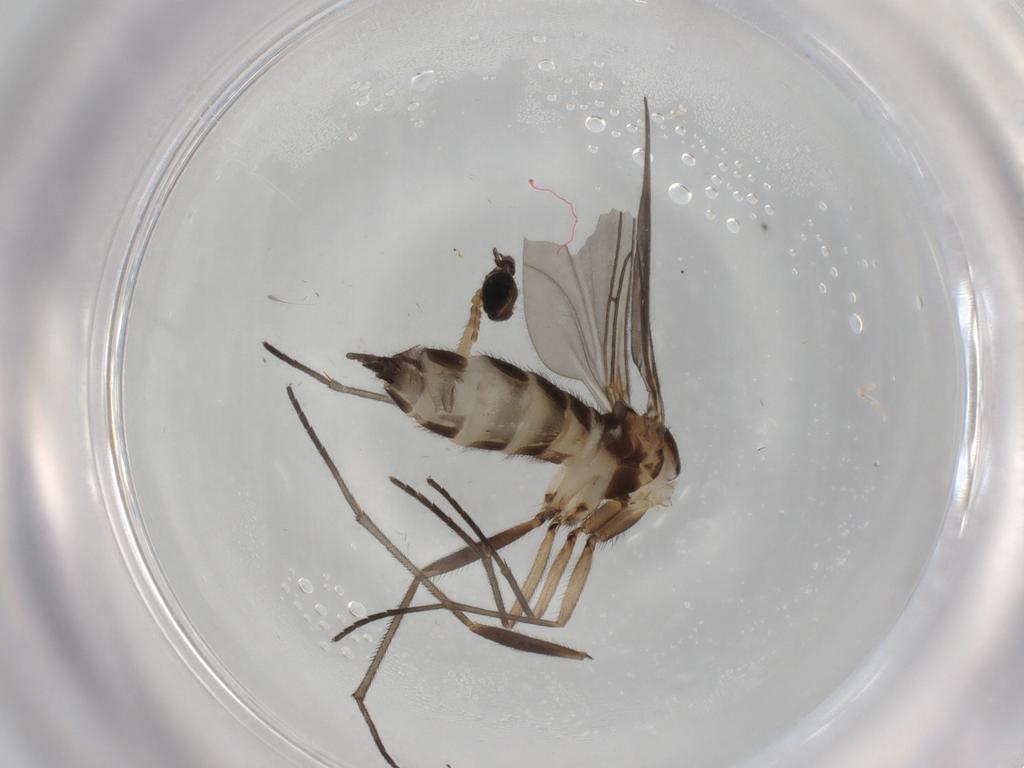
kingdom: Animalia
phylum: Arthropoda
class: Insecta
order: Diptera
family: Sciaridae
